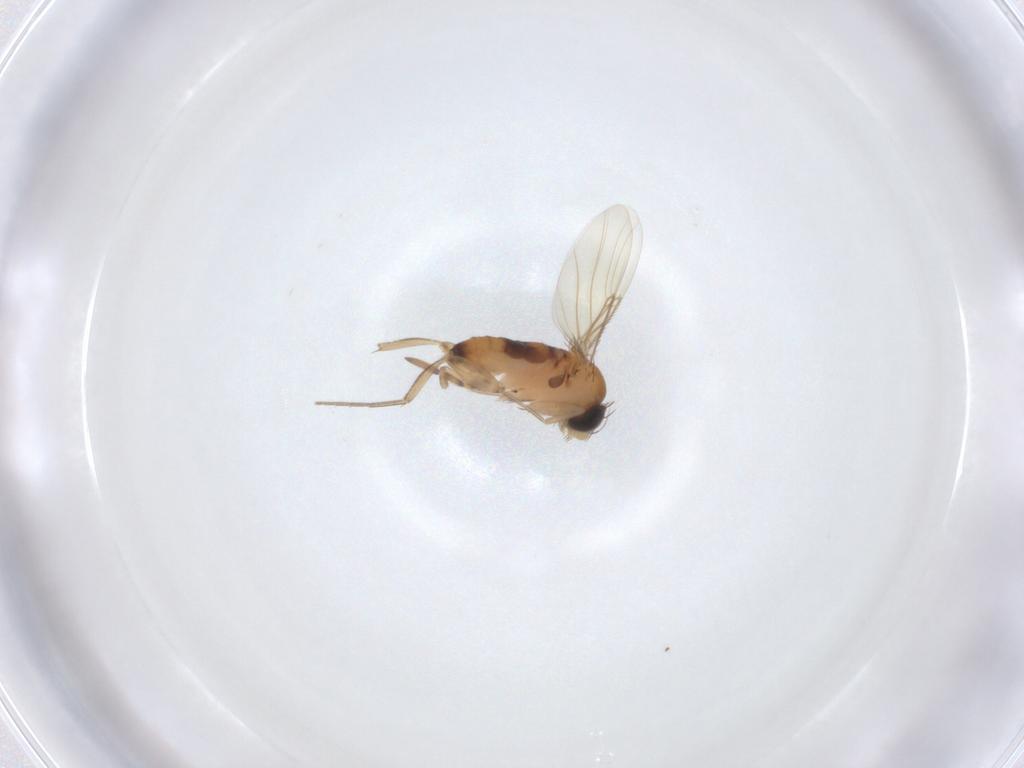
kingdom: Animalia
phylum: Arthropoda
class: Insecta
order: Diptera
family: Phoridae
